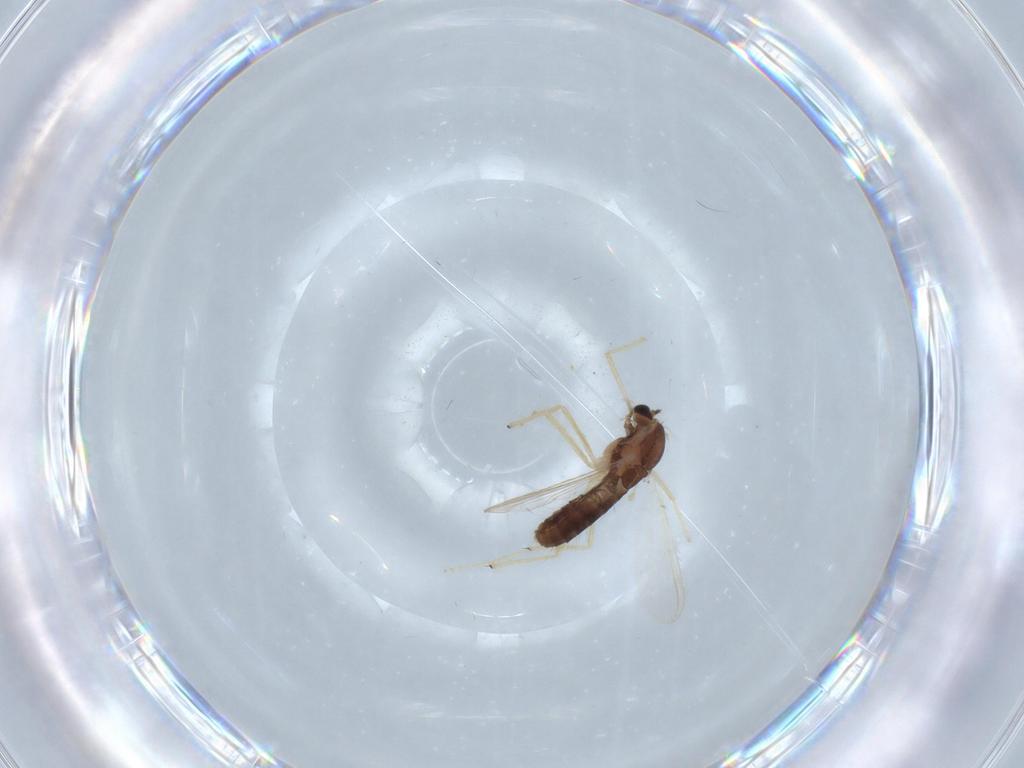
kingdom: Animalia
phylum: Arthropoda
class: Insecta
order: Diptera
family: Chironomidae
